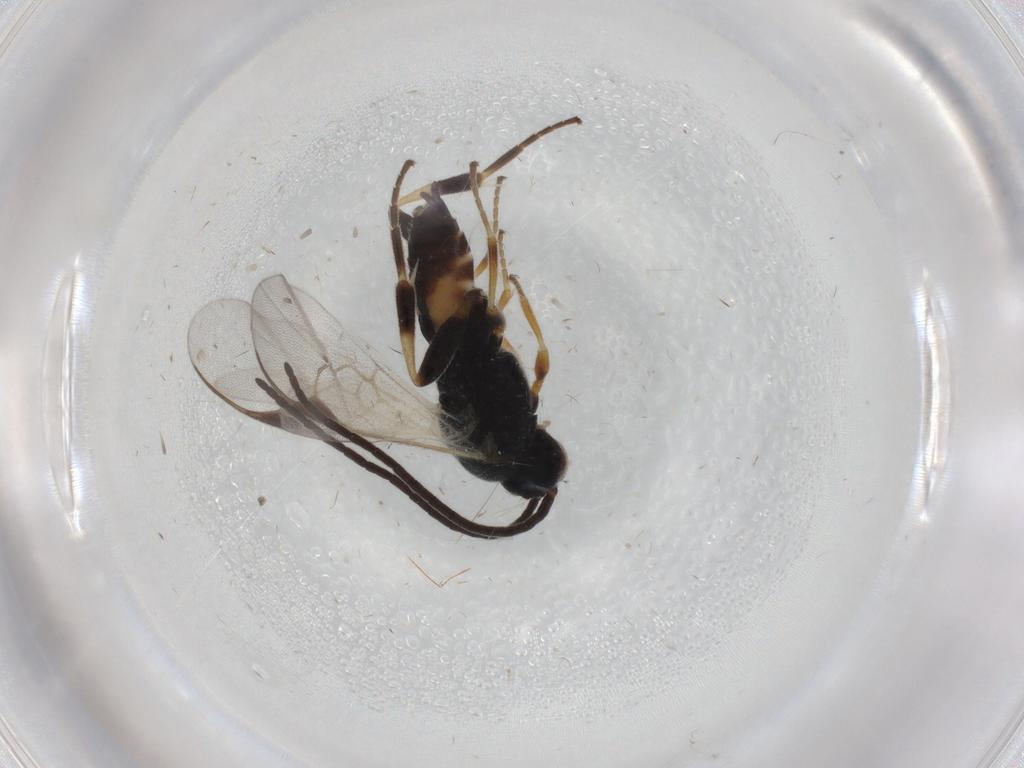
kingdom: Animalia
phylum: Arthropoda
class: Insecta
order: Hymenoptera
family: Braconidae
